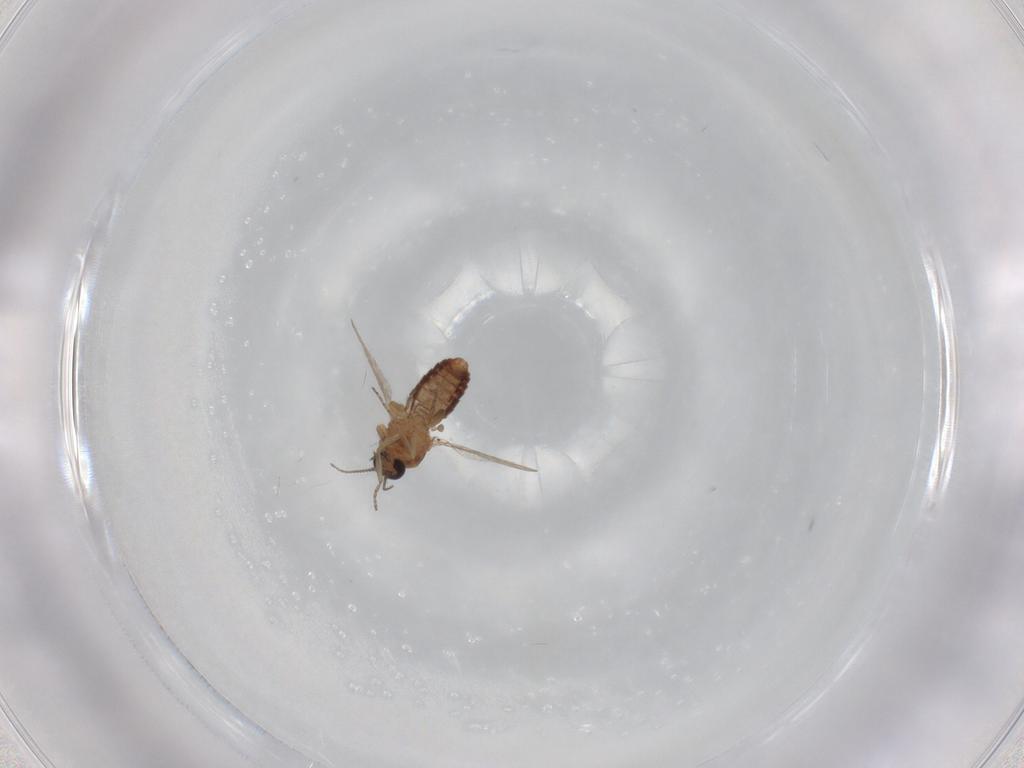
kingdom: Animalia
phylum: Arthropoda
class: Insecta
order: Diptera
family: Ceratopogonidae
